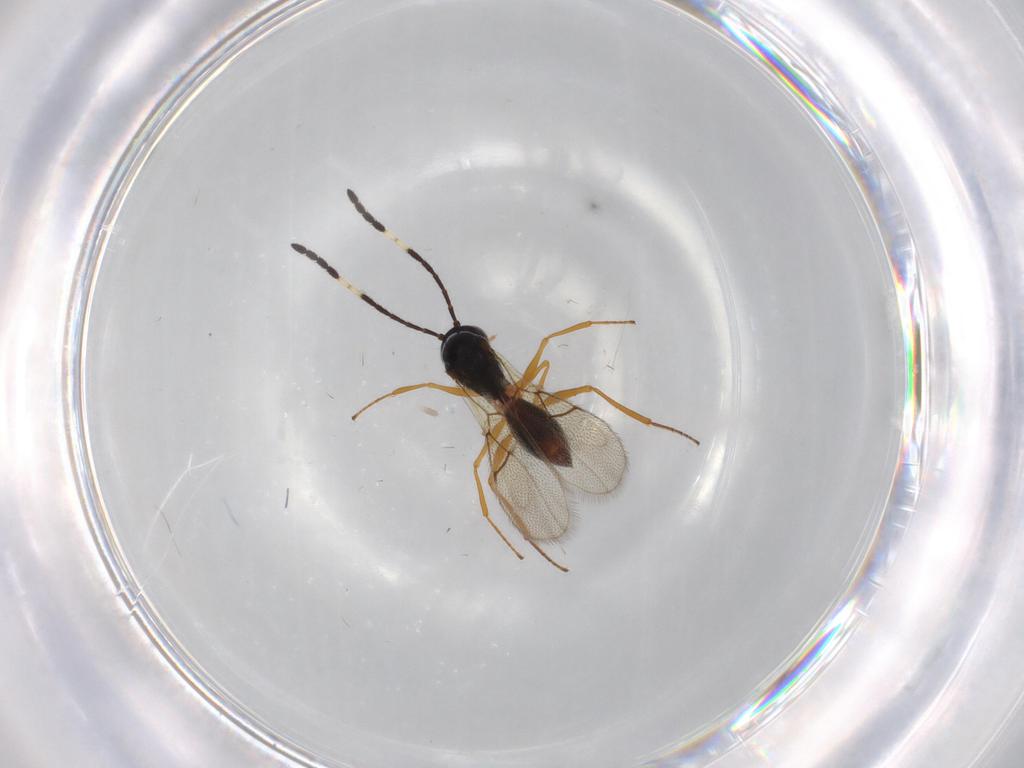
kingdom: Animalia
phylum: Arthropoda
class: Insecta
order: Hymenoptera
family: Figitidae
